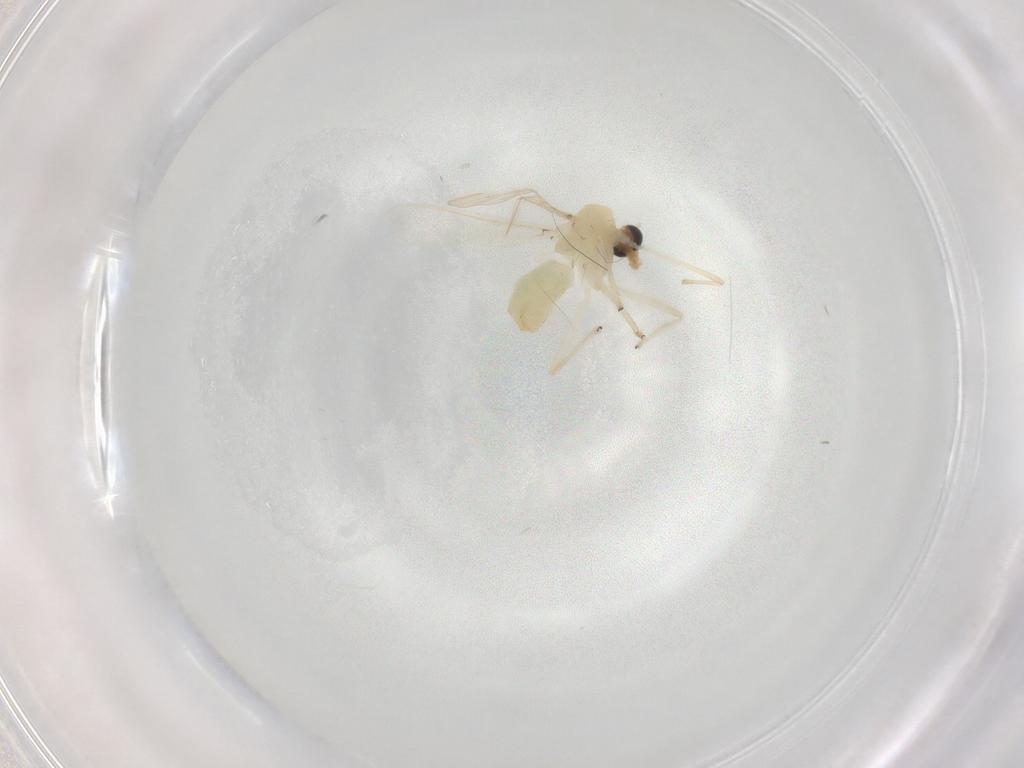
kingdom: Animalia
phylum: Arthropoda
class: Insecta
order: Diptera
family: Chironomidae
